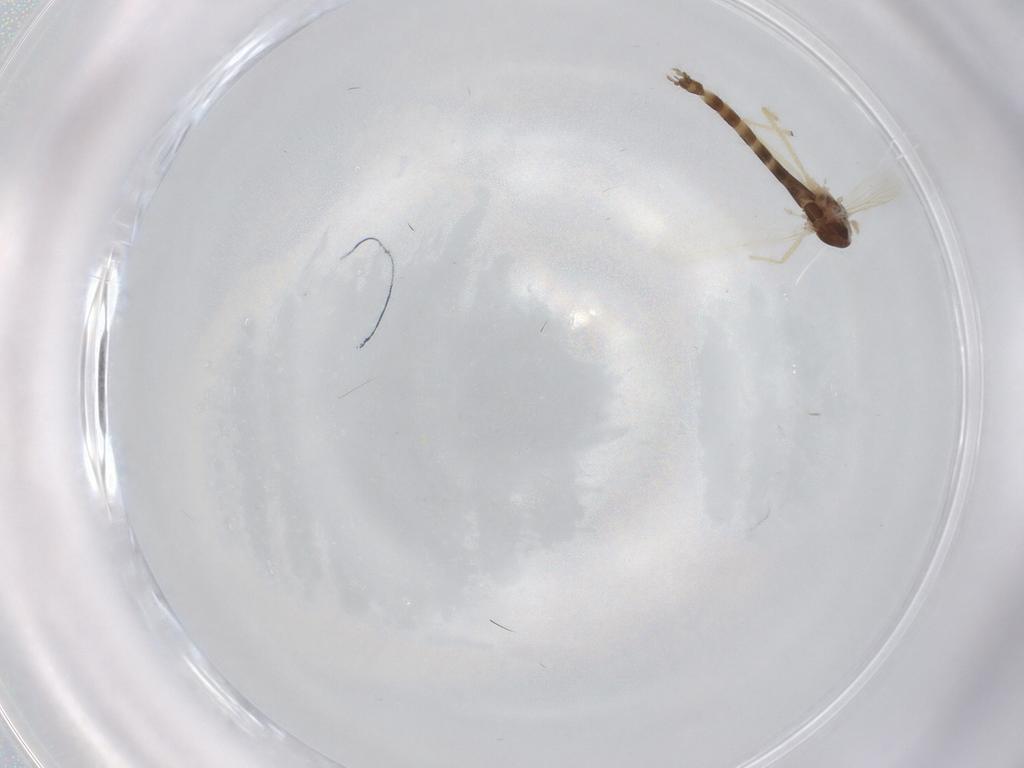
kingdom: Animalia
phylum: Arthropoda
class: Insecta
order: Diptera
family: Chironomidae
